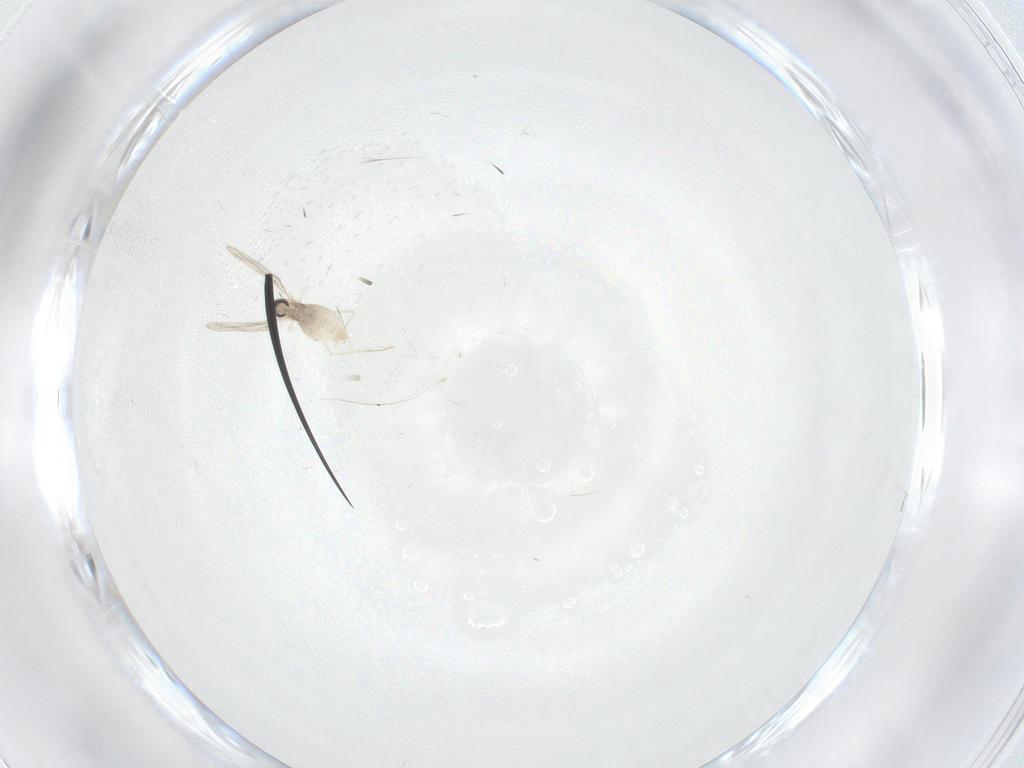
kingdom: Animalia
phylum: Arthropoda
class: Insecta
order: Diptera
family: Cecidomyiidae
